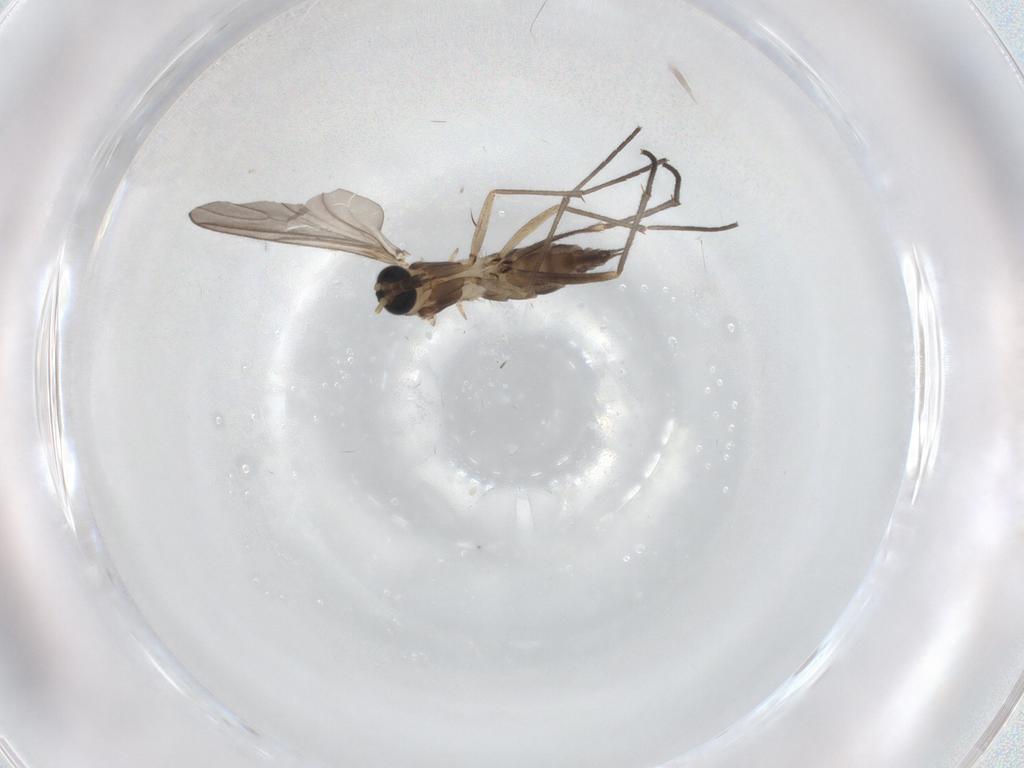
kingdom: Animalia
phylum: Arthropoda
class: Insecta
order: Diptera
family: Sciaridae
